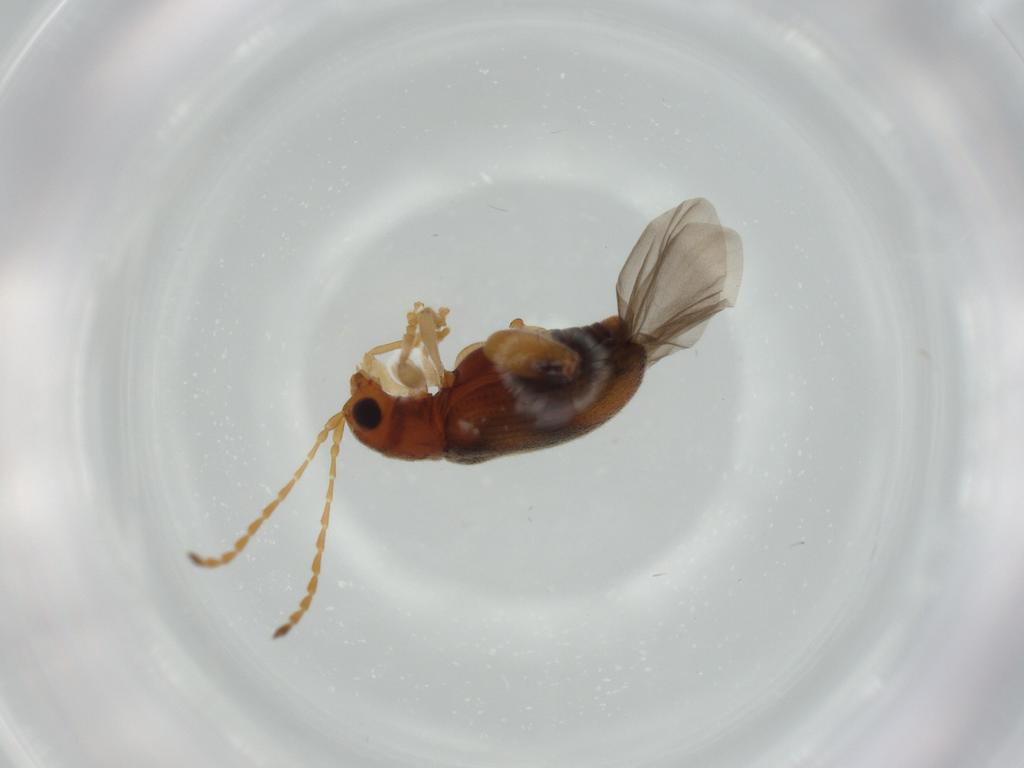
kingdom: Animalia
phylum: Arthropoda
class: Insecta
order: Coleoptera
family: Chrysomelidae
